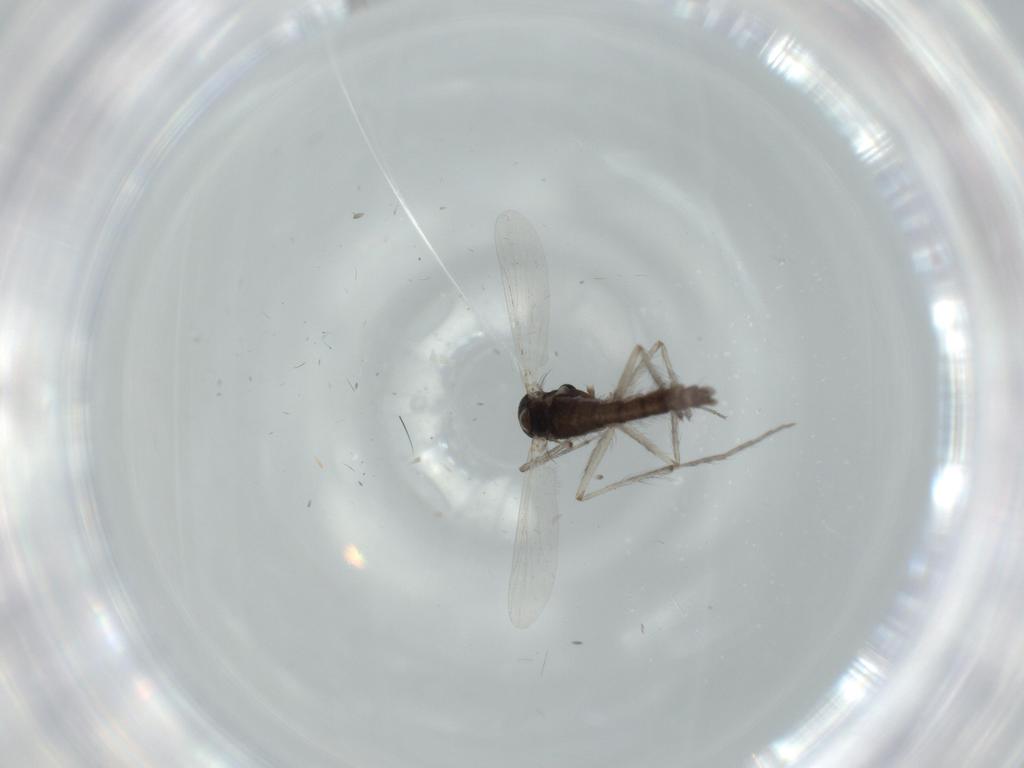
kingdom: Animalia
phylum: Arthropoda
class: Insecta
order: Diptera
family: Chironomidae
